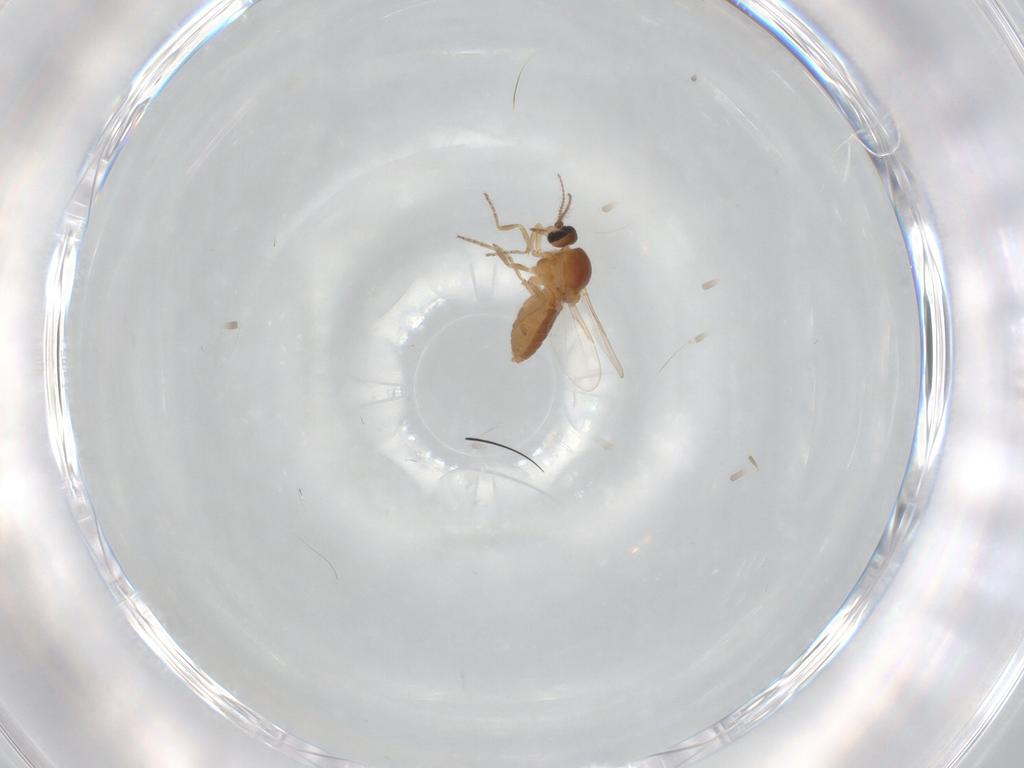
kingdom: Animalia
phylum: Arthropoda
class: Insecta
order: Diptera
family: Ceratopogonidae
